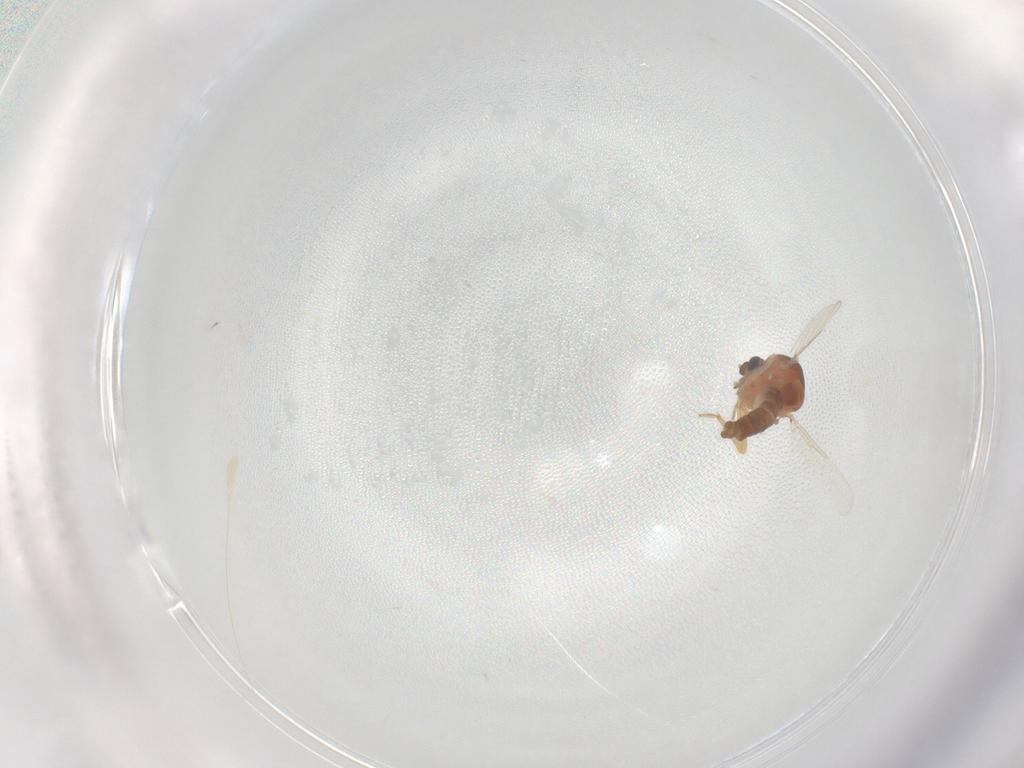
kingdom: Animalia
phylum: Arthropoda
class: Insecta
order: Diptera
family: Ceratopogonidae
